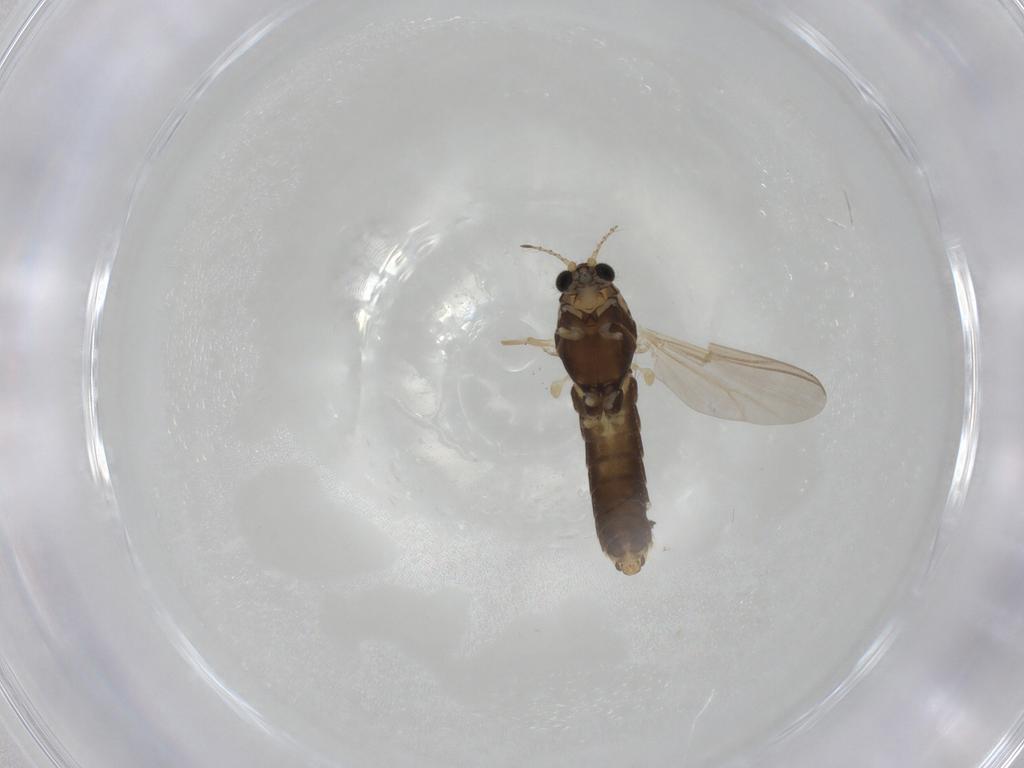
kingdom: Animalia
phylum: Arthropoda
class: Insecta
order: Diptera
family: Chironomidae
